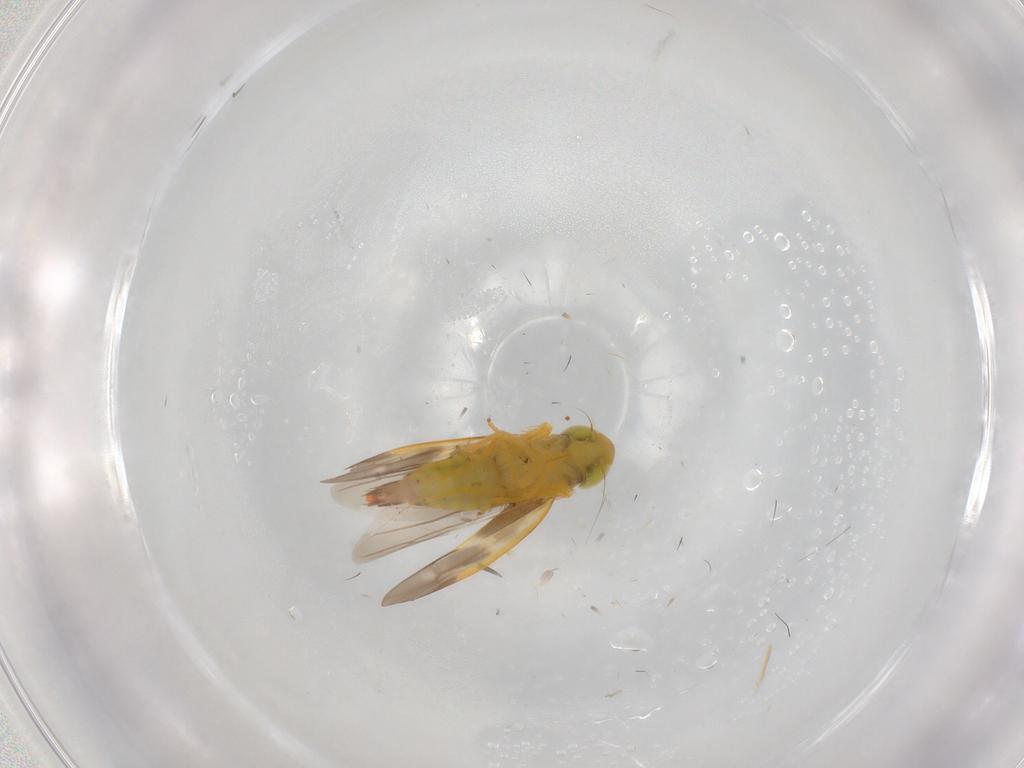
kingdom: Animalia
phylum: Arthropoda
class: Insecta
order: Hemiptera
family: Cicadellidae
